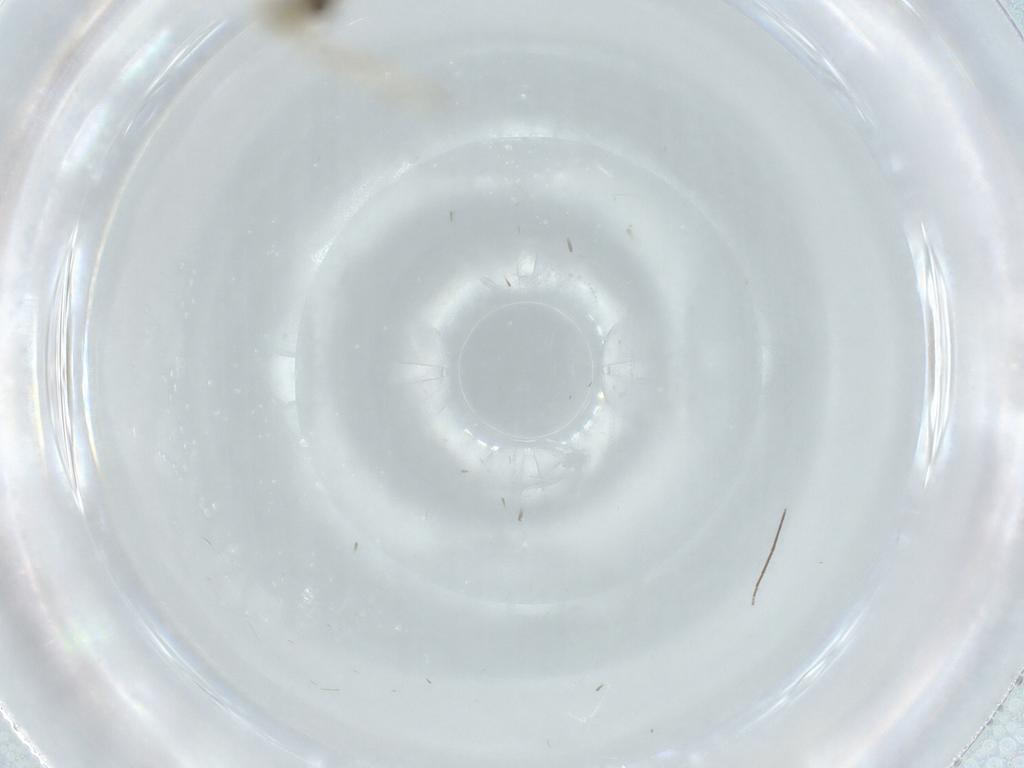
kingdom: Animalia
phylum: Arthropoda
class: Insecta
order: Diptera
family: Chironomidae
